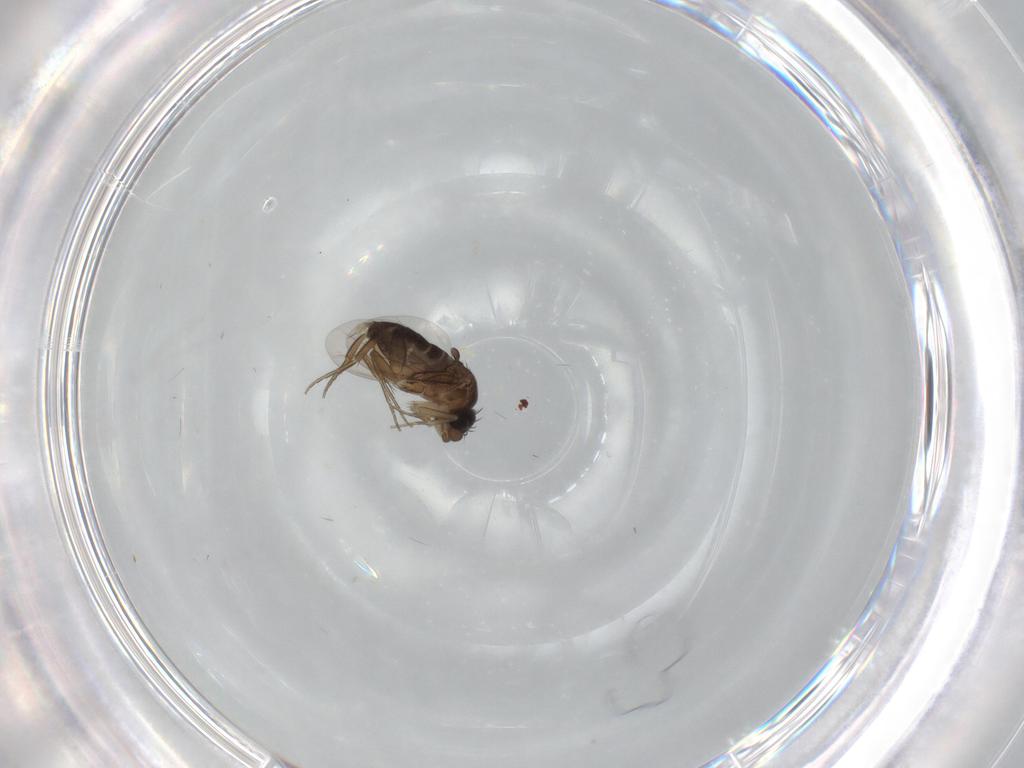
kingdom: Animalia
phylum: Arthropoda
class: Insecta
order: Diptera
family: Phoridae
